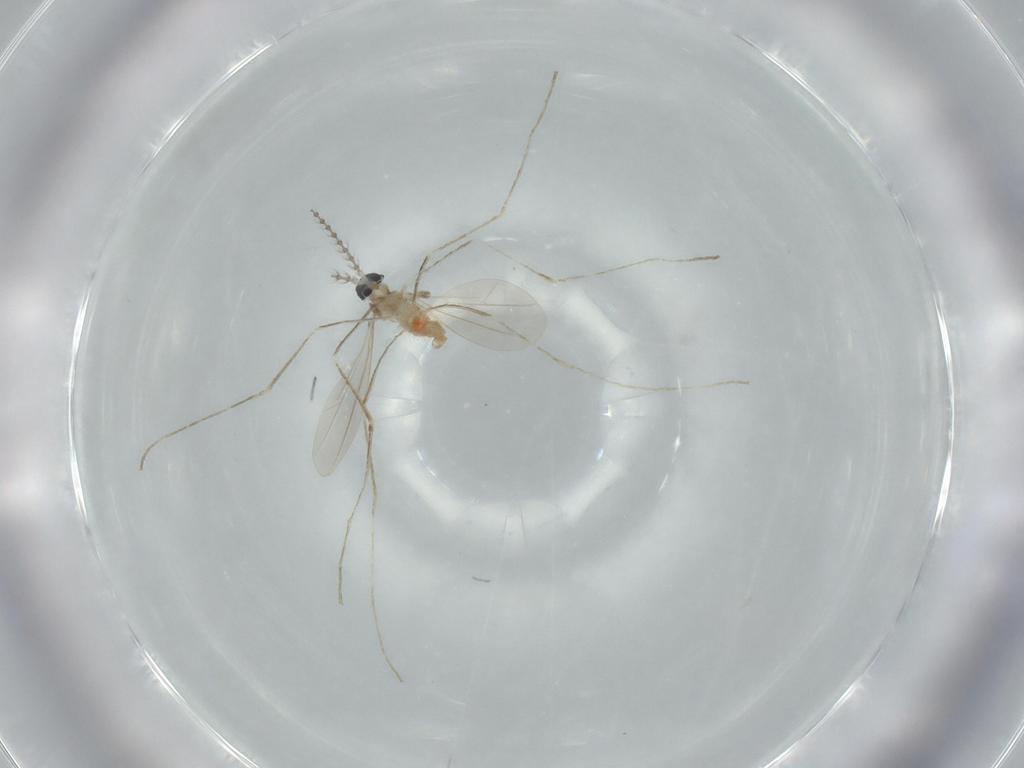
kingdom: Animalia
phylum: Arthropoda
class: Insecta
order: Diptera
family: Cecidomyiidae
